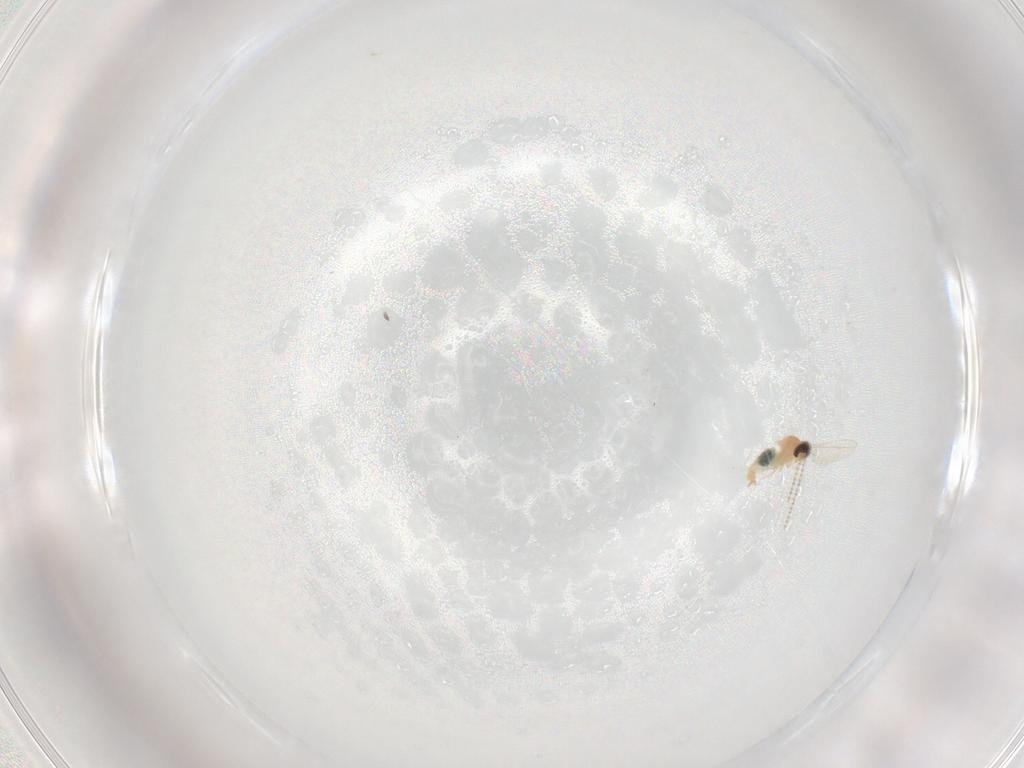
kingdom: Animalia
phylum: Arthropoda
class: Insecta
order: Diptera
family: Cecidomyiidae
